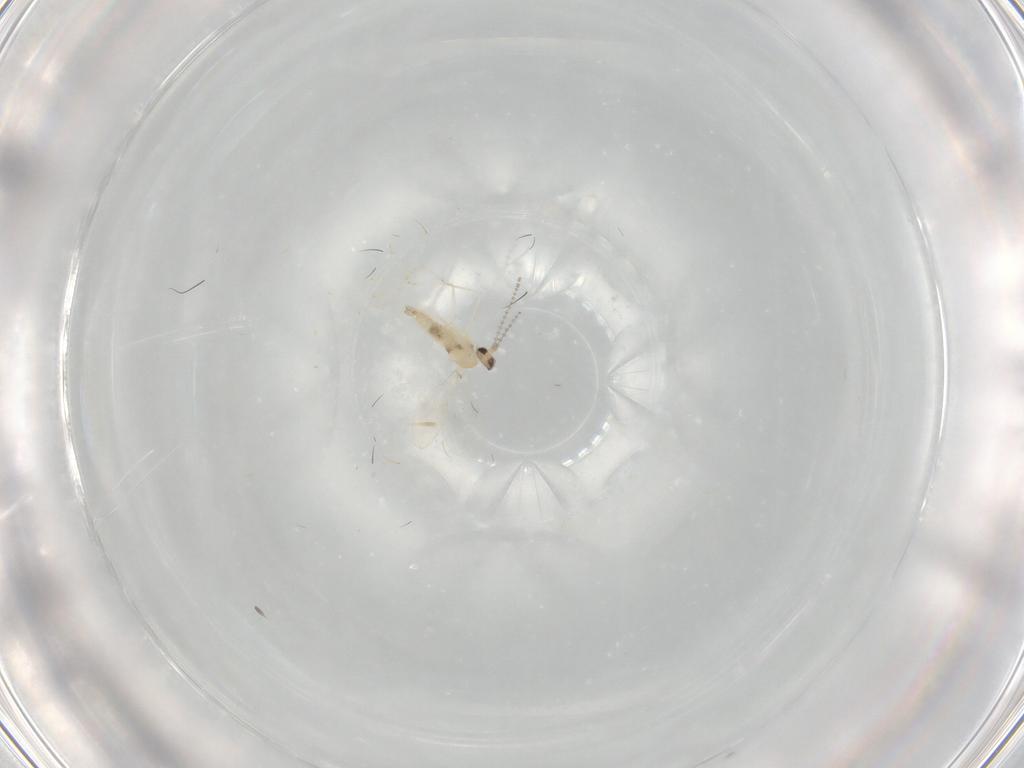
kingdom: Animalia
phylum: Arthropoda
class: Insecta
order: Diptera
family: Cecidomyiidae
